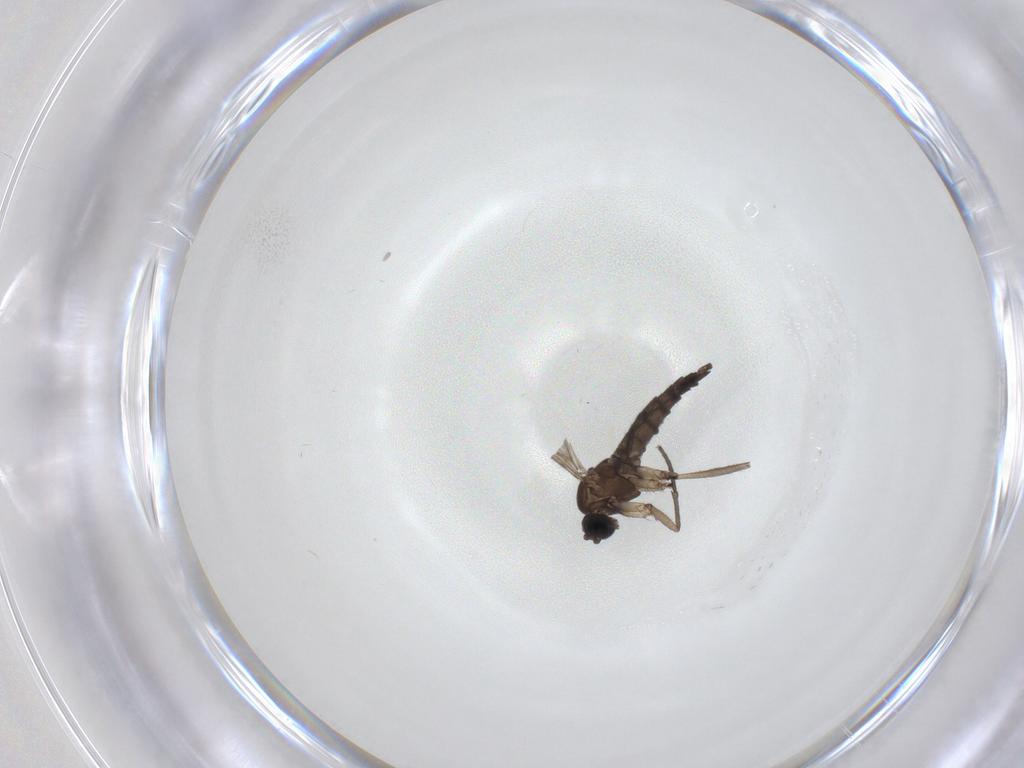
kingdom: Animalia
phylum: Arthropoda
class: Insecta
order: Diptera
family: Sciaridae
